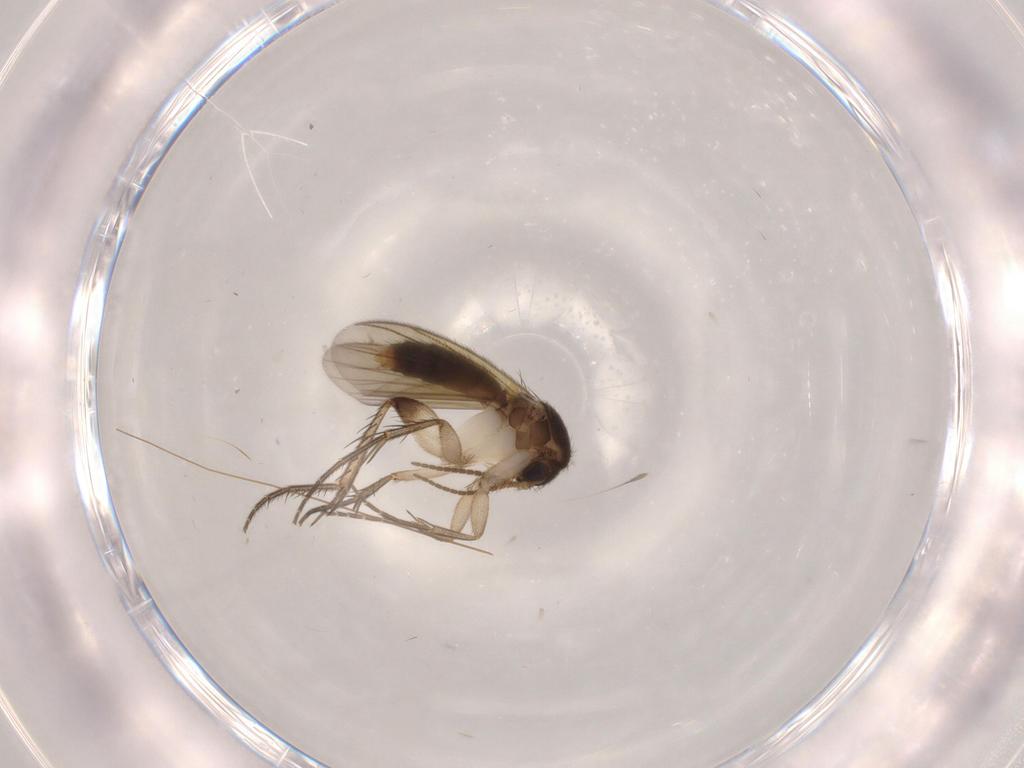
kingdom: Animalia
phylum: Arthropoda
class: Insecta
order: Diptera
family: Psychodidae
